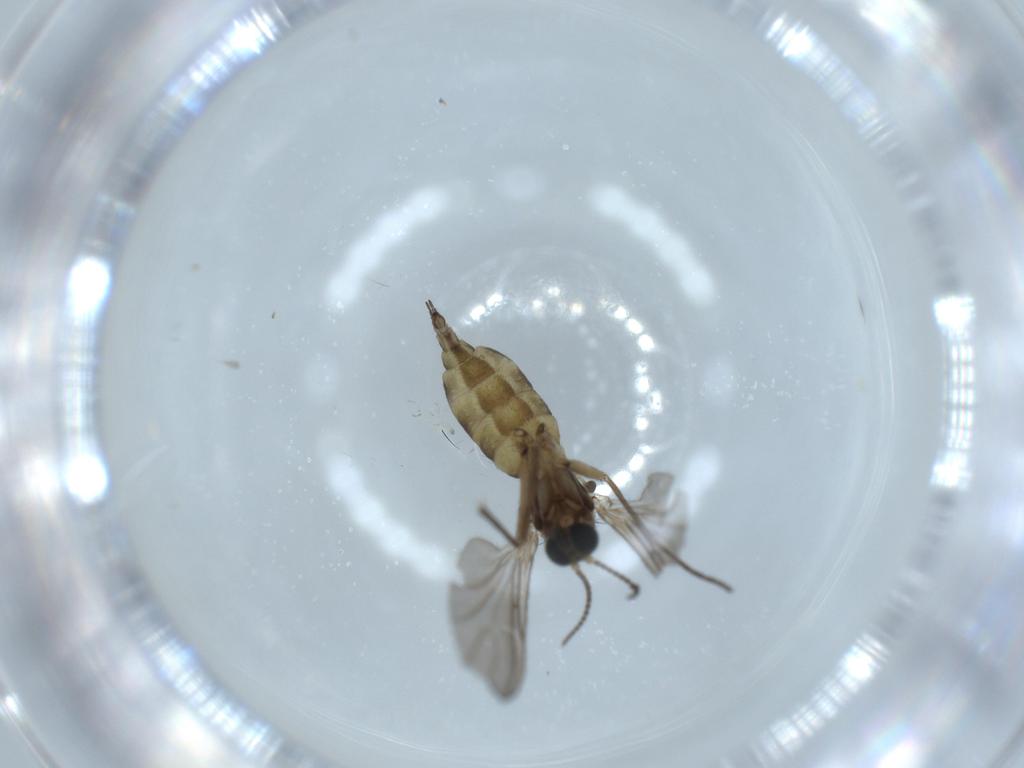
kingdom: Animalia
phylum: Arthropoda
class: Insecta
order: Diptera
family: Sciaridae
